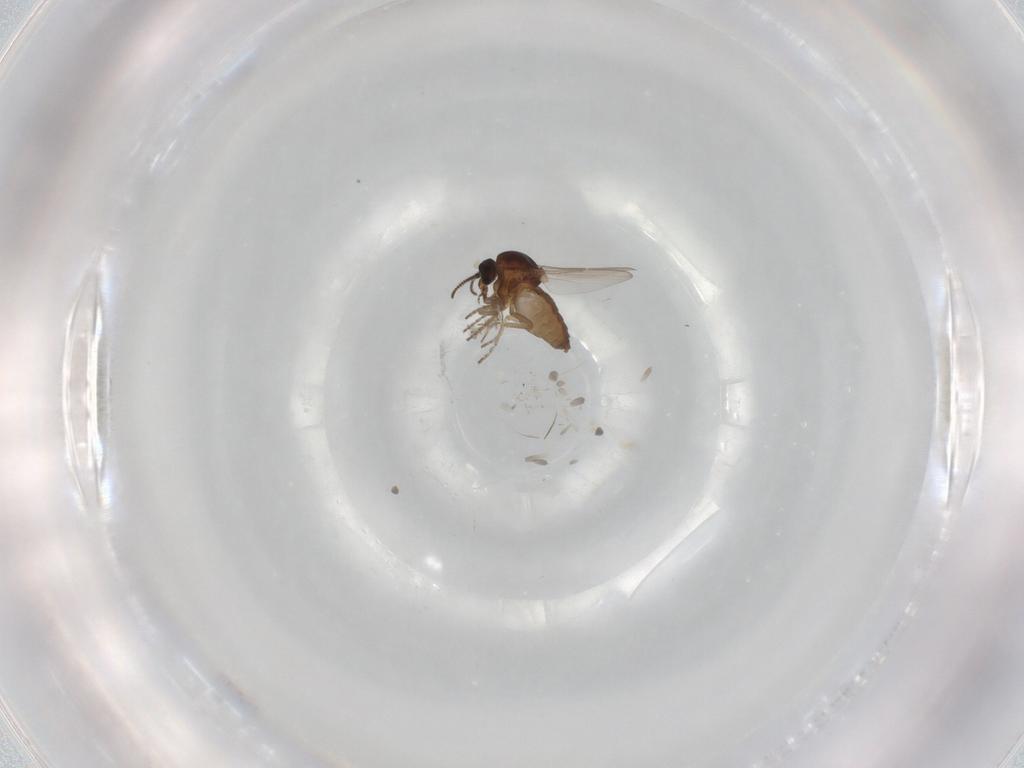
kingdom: Animalia
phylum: Arthropoda
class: Insecta
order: Diptera
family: Ceratopogonidae
